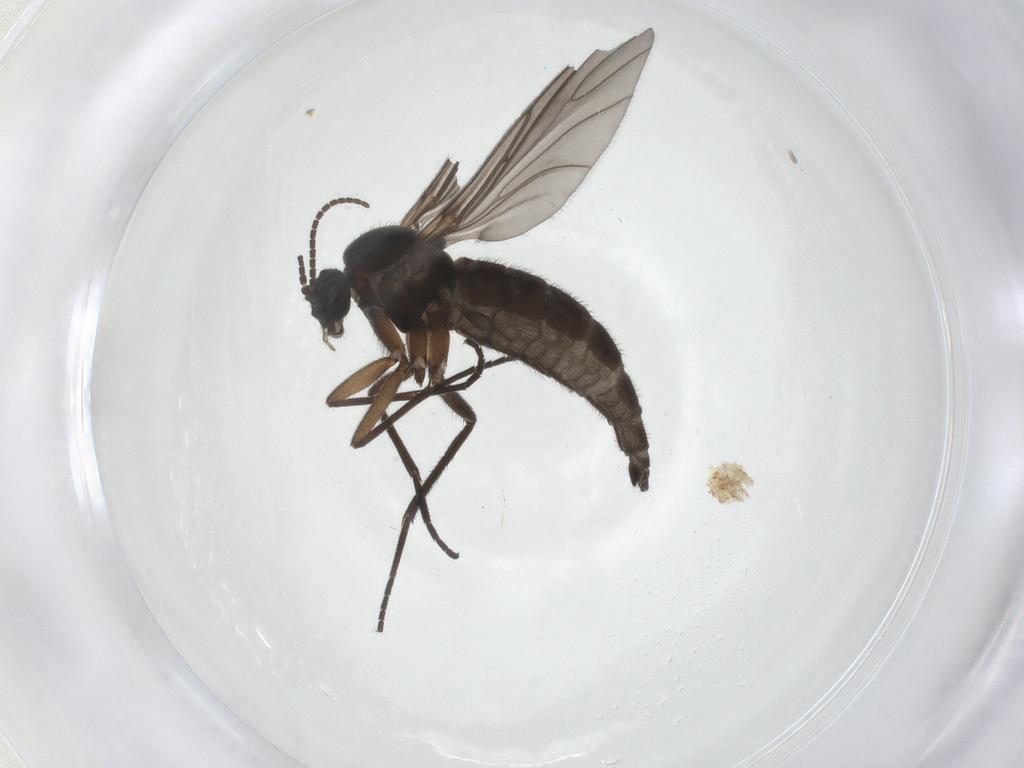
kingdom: Animalia
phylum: Arthropoda
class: Insecta
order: Diptera
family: Sciaridae
